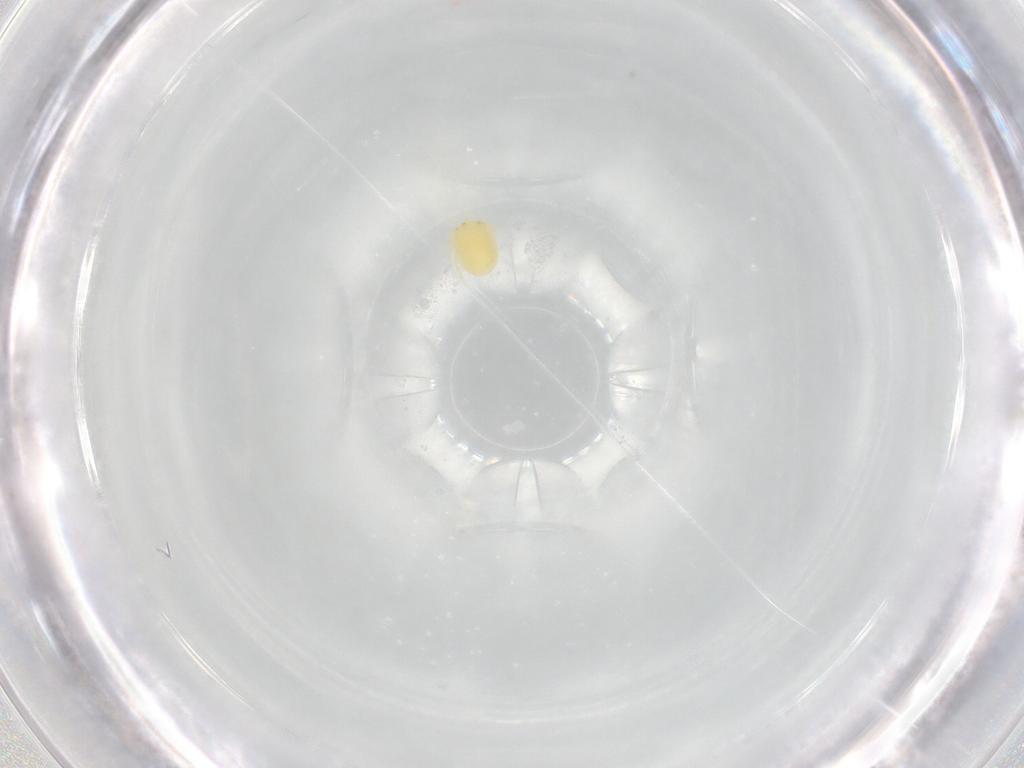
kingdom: Animalia
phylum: Arthropoda
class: Arachnida
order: Trombidiformes
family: Hydryphantidae
